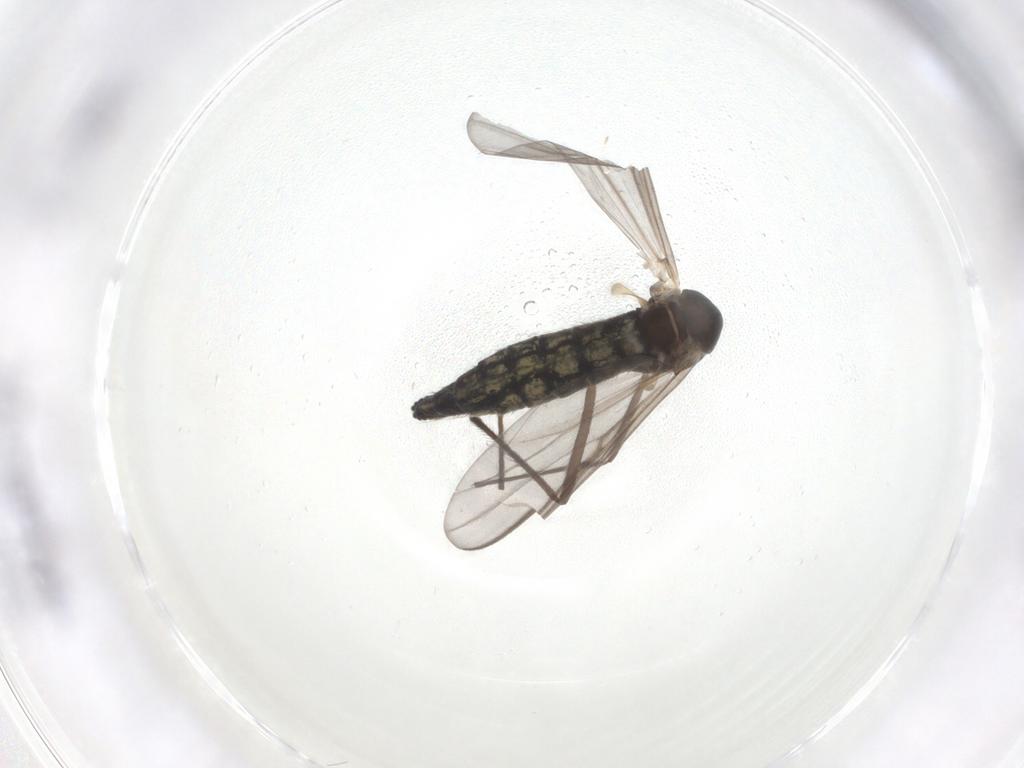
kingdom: Animalia
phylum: Arthropoda
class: Insecta
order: Diptera
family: Chironomidae
